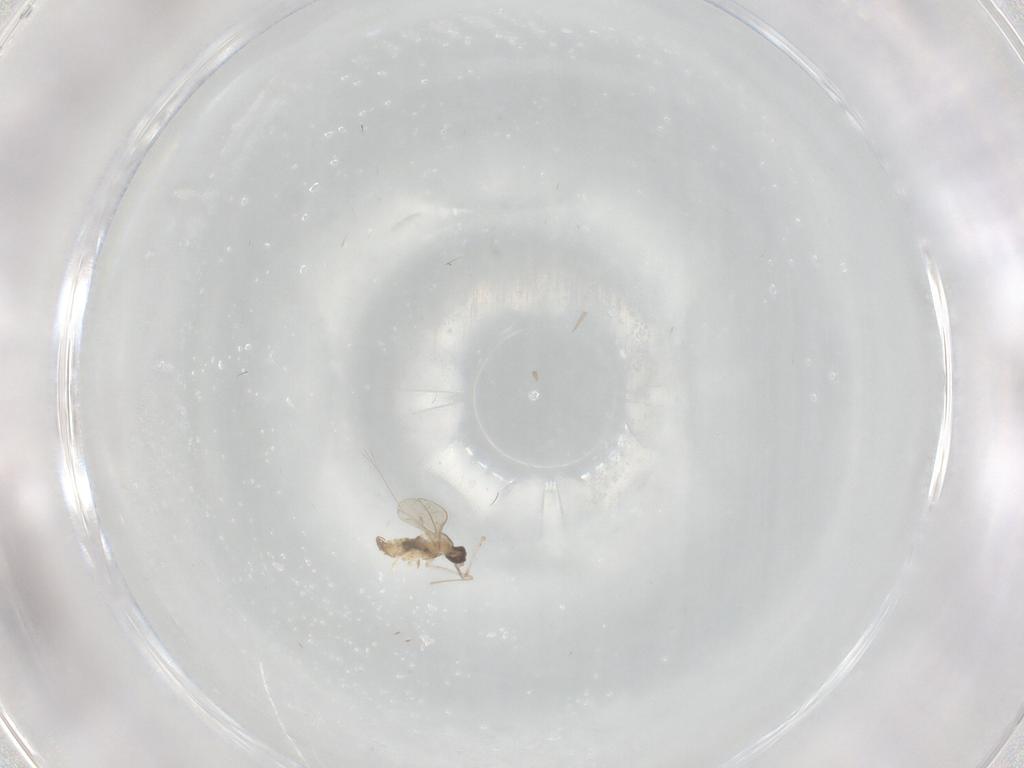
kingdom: Animalia
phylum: Arthropoda
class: Insecta
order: Diptera
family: Cecidomyiidae
